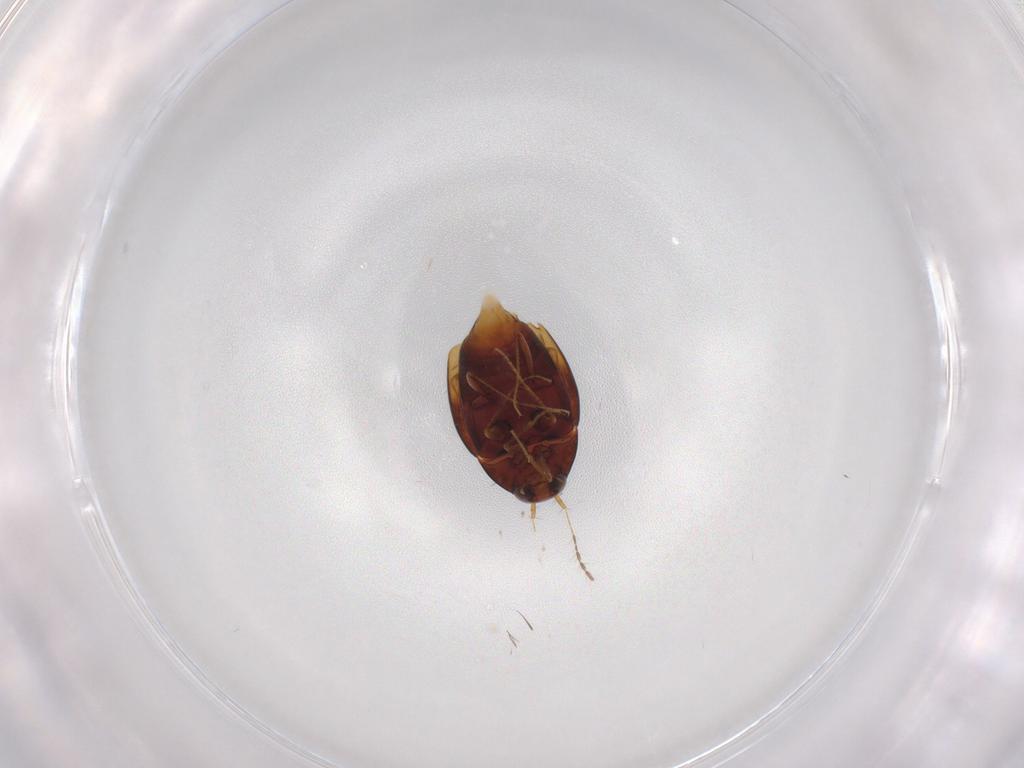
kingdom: Animalia
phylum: Arthropoda
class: Insecta
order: Coleoptera
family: Staphylinidae
